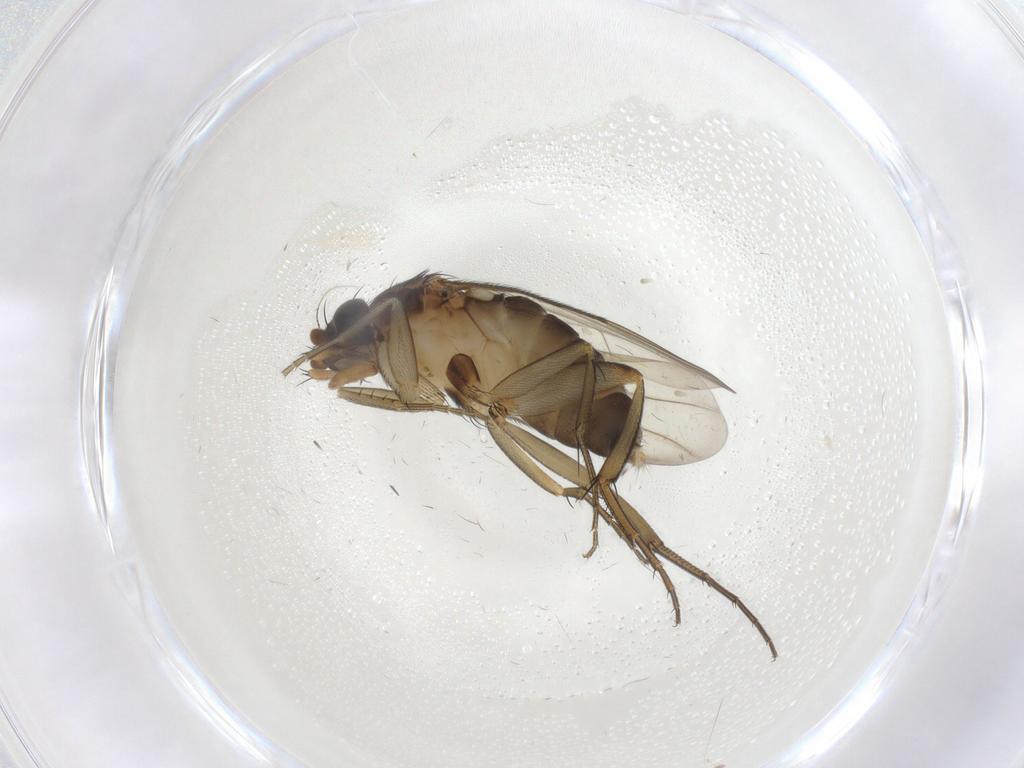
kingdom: Animalia
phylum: Arthropoda
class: Insecta
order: Diptera
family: Phoridae
